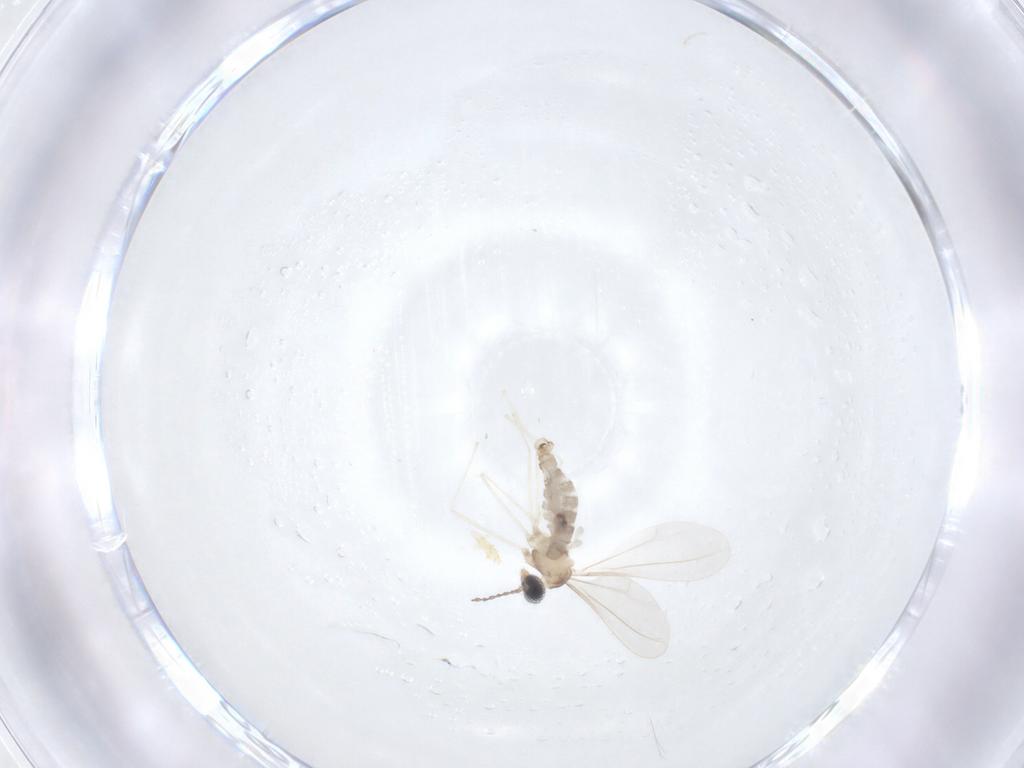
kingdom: Animalia
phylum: Arthropoda
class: Insecta
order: Diptera
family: Cecidomyiidae
